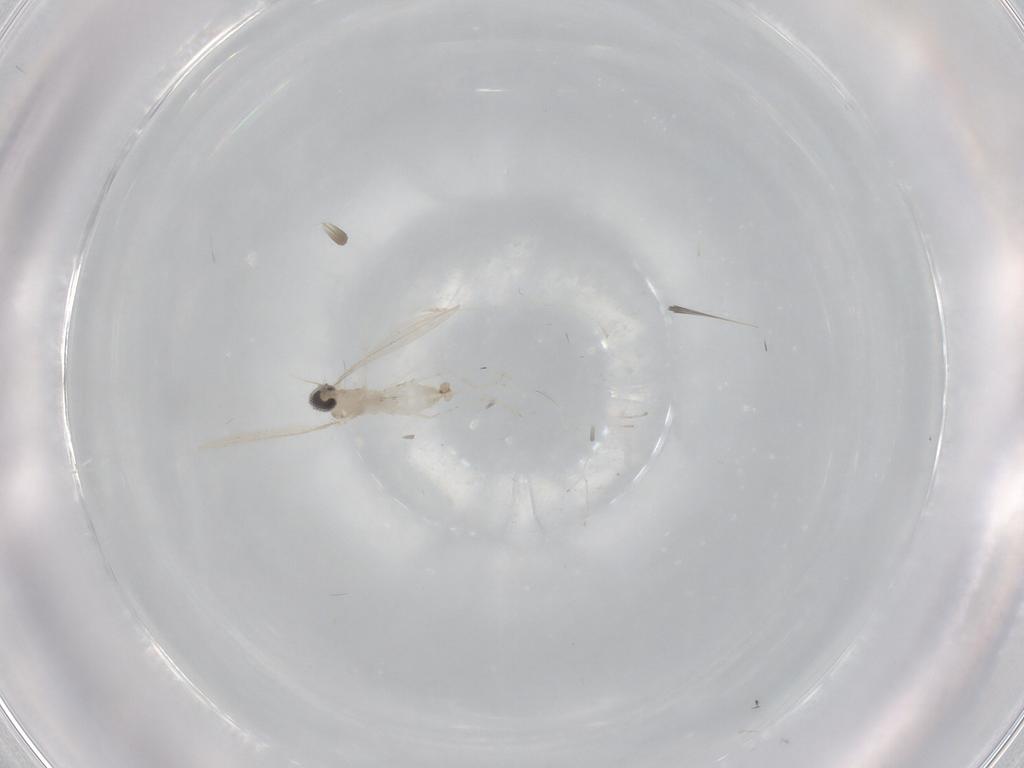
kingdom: Animalia
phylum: Arthropoda
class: Insecta
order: Diptera
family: Cecidomyiidae
